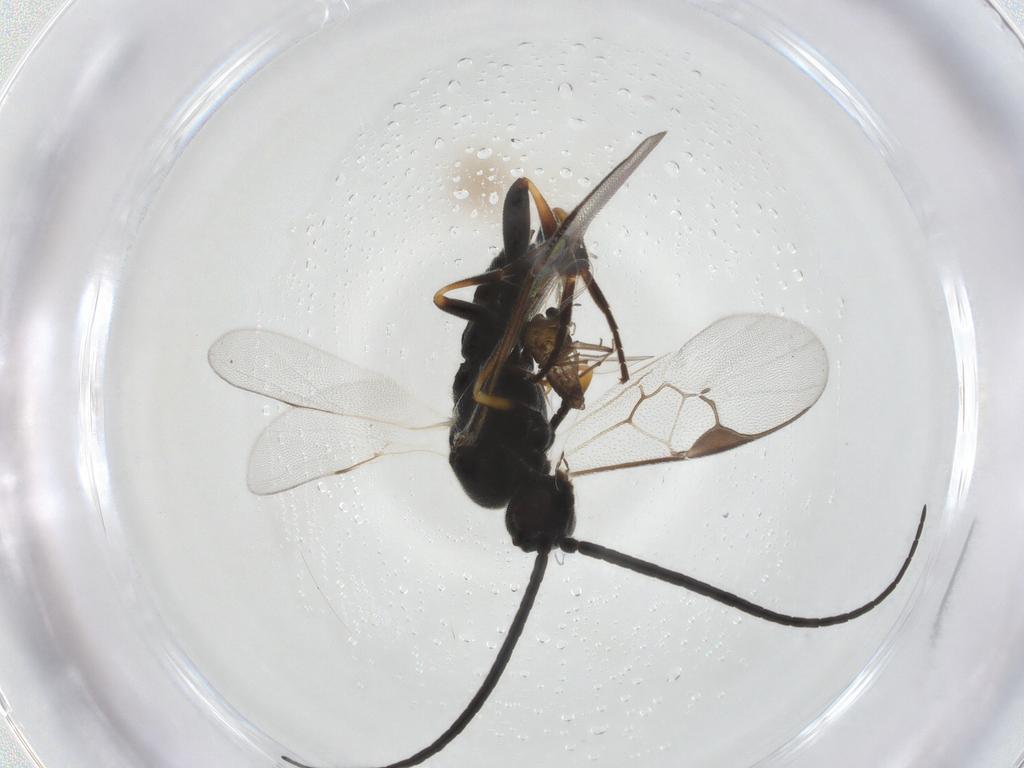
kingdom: Animalia
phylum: Arthropoda
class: Insecta
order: Hymenoptera
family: Braconidae
